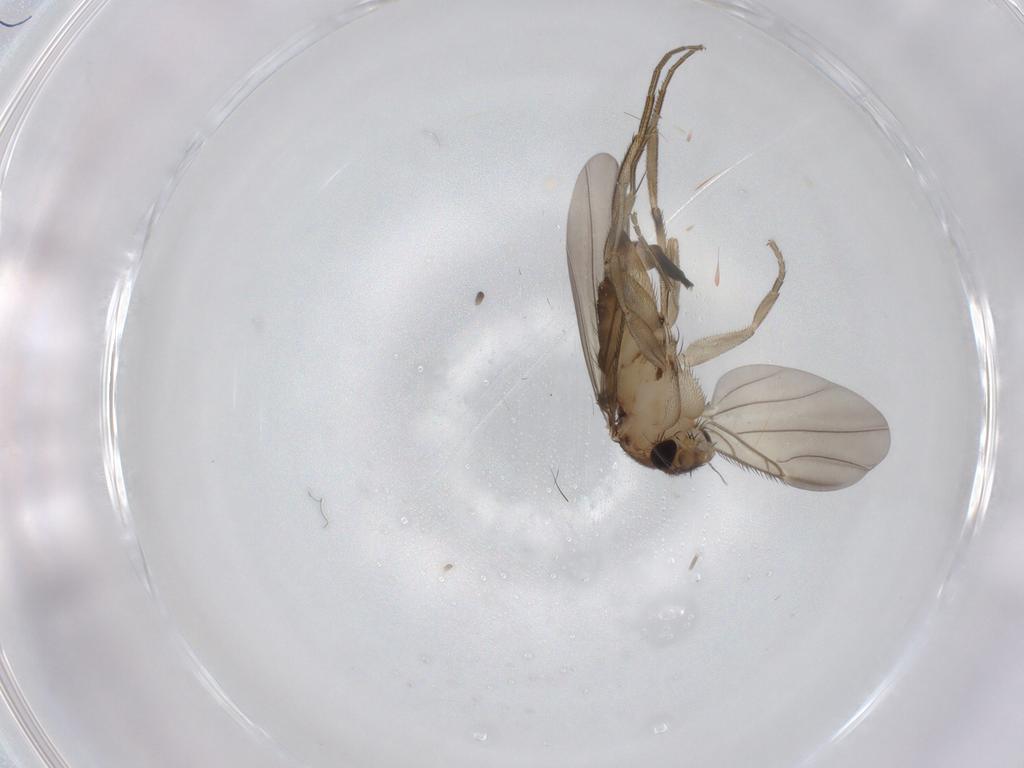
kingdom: Animalia
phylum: Arthropoda
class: Insecta
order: Diptera
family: Phoridae
